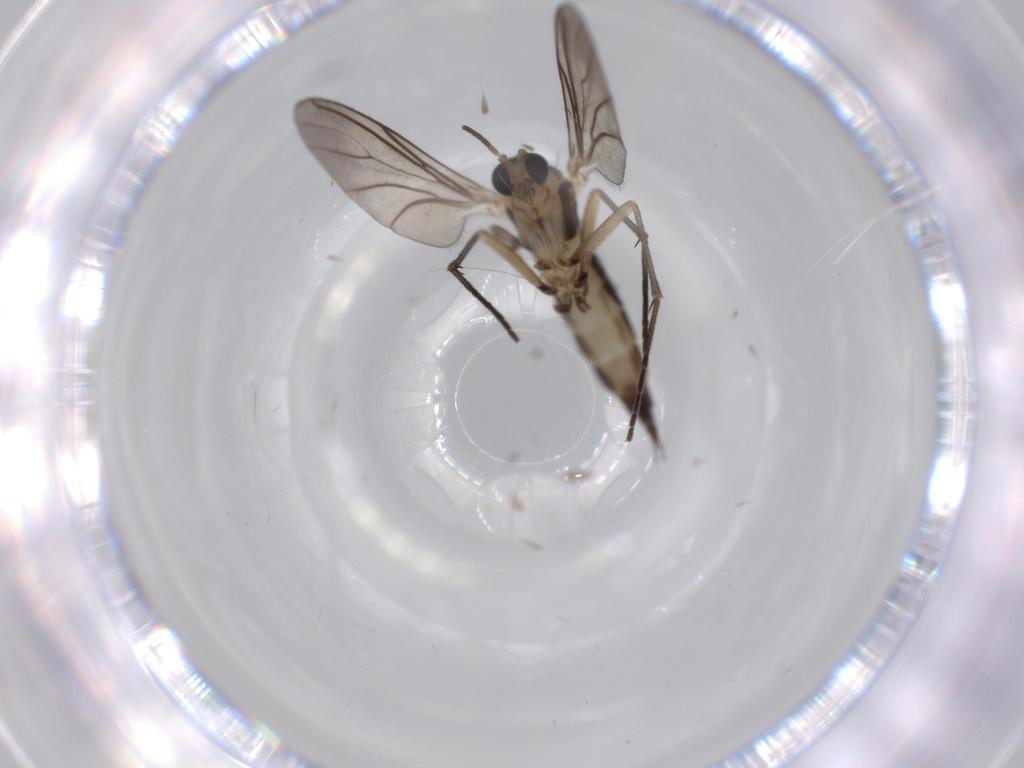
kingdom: Animalia
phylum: Arthropoda
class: Insecta
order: Diptera
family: Sciaridae
